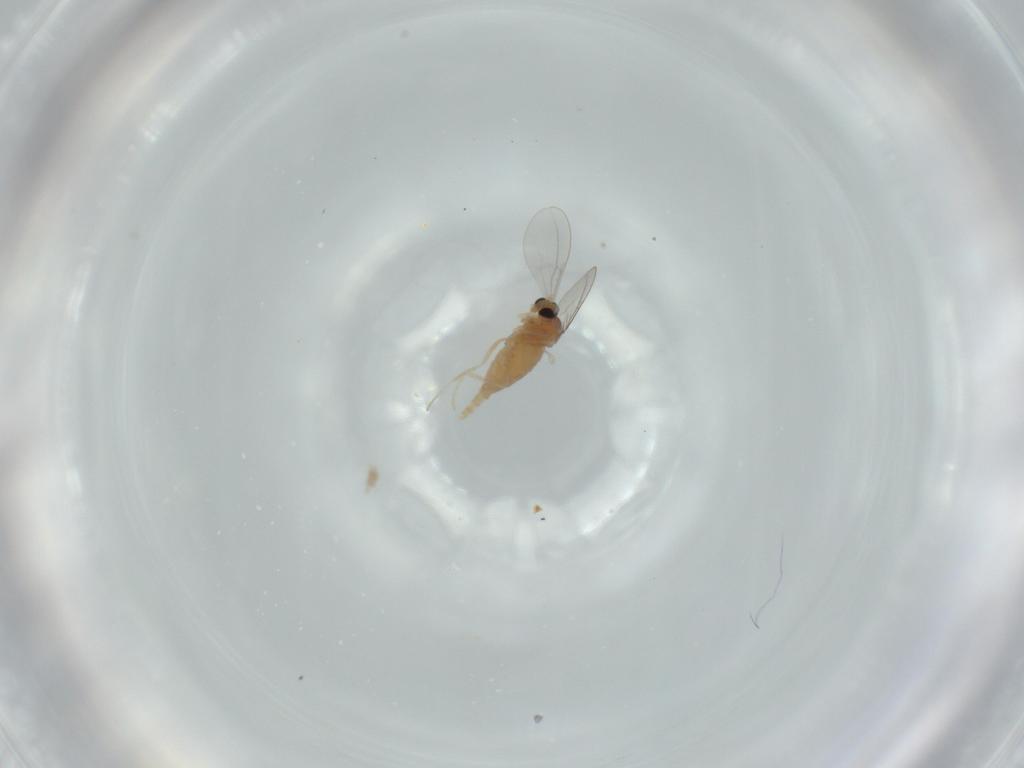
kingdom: Animalia
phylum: Arthropoda
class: Insecta
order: Diptera
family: Cecidomyiidae
